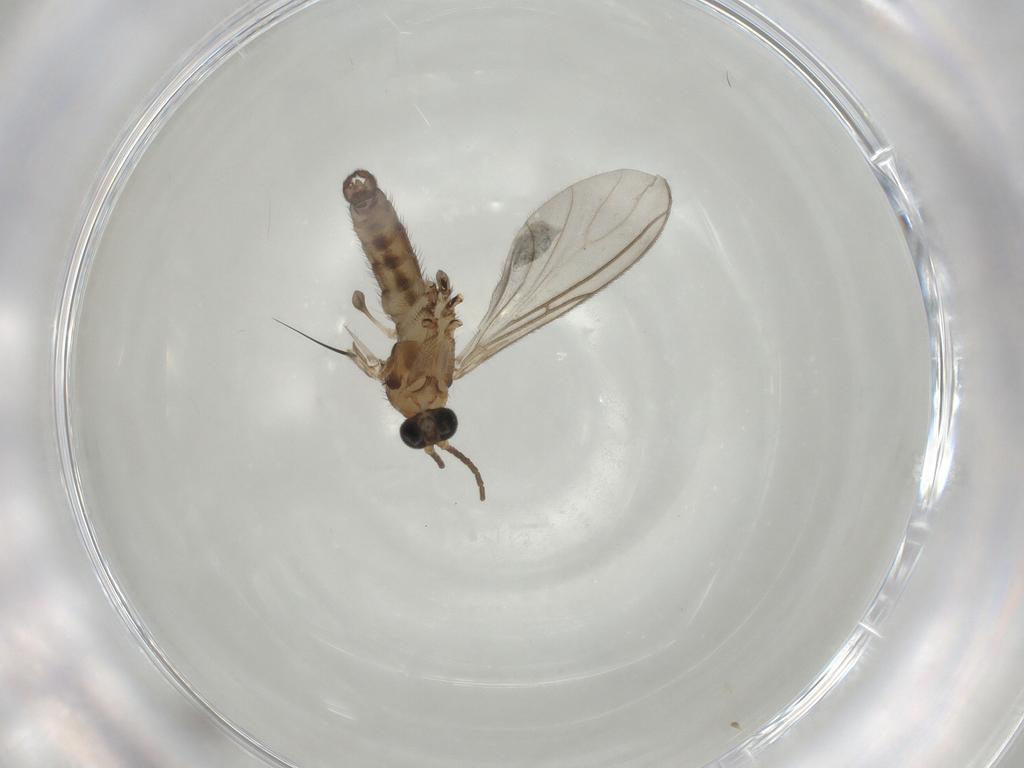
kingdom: Animalia
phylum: Arthropoda
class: Insecta
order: Diptera
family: Sciaridae
